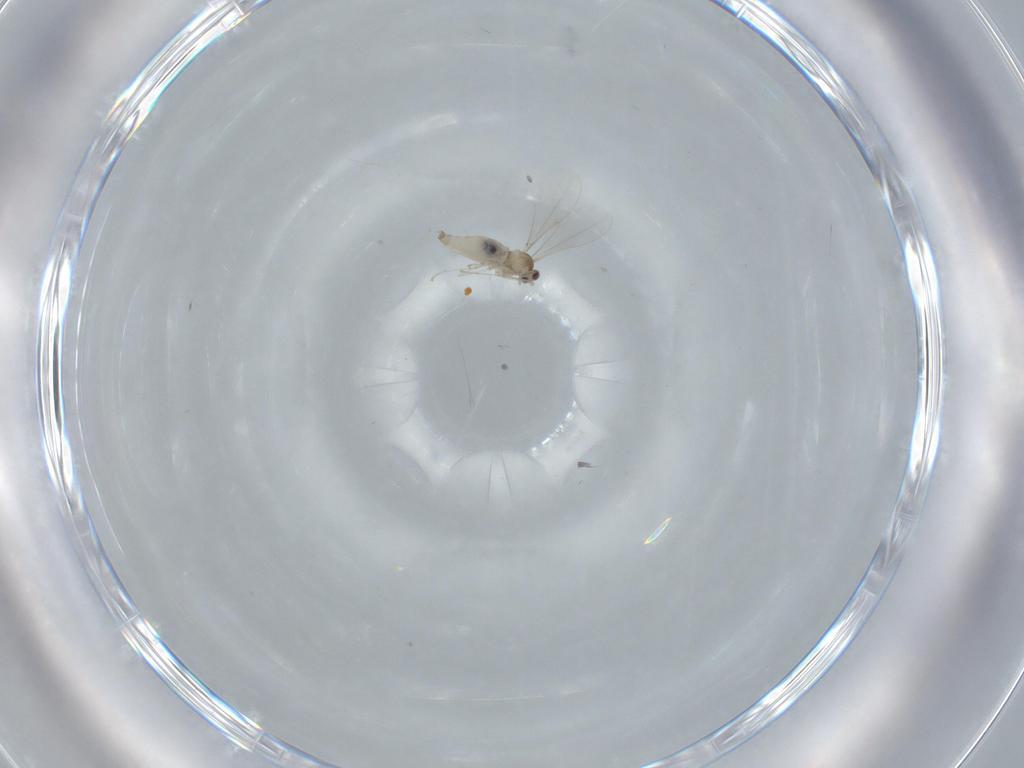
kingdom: Animalia
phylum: Arthropoda
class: Insecta
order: Diptera
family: Cecidomyiidae
